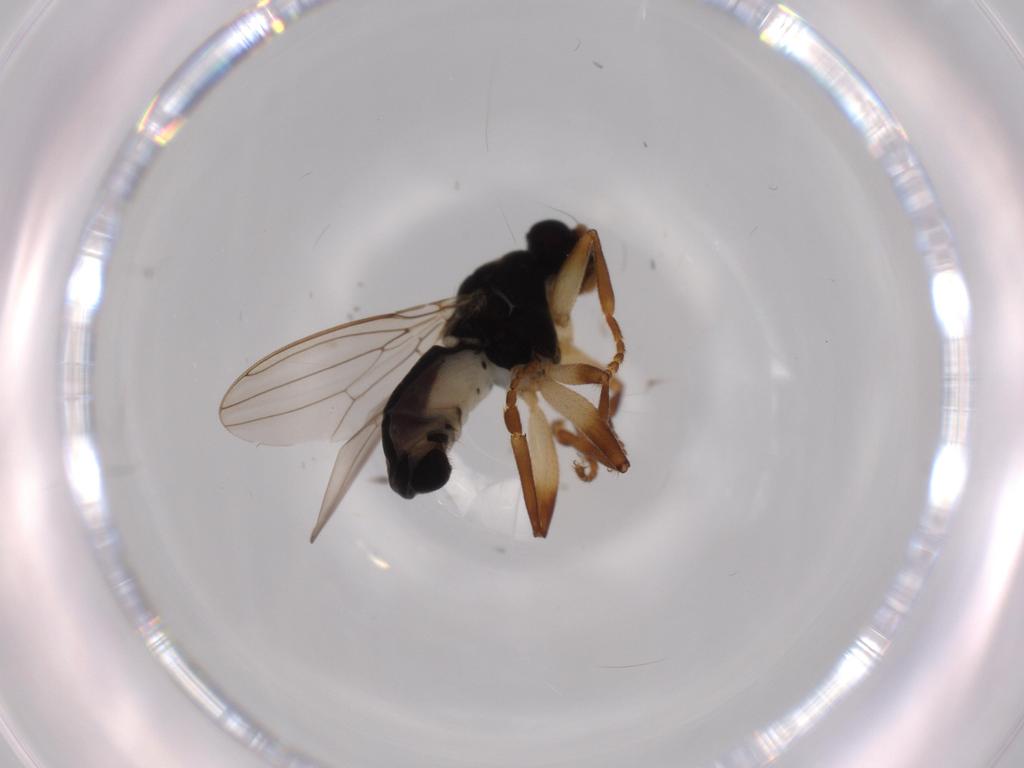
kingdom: Animalia
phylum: Arthropoda
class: Insecta
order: Diptera
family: Sphaeroceridae
